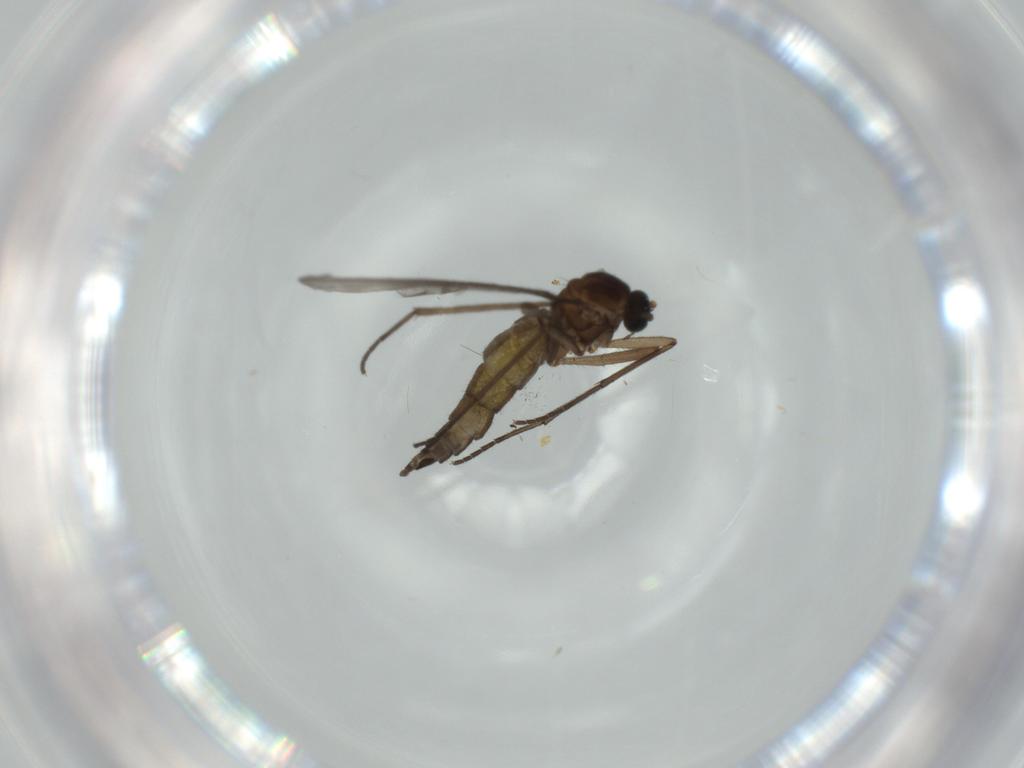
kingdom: Animalia
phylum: Arthropoda
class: Insecta
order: Diptera
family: Sciaridae
